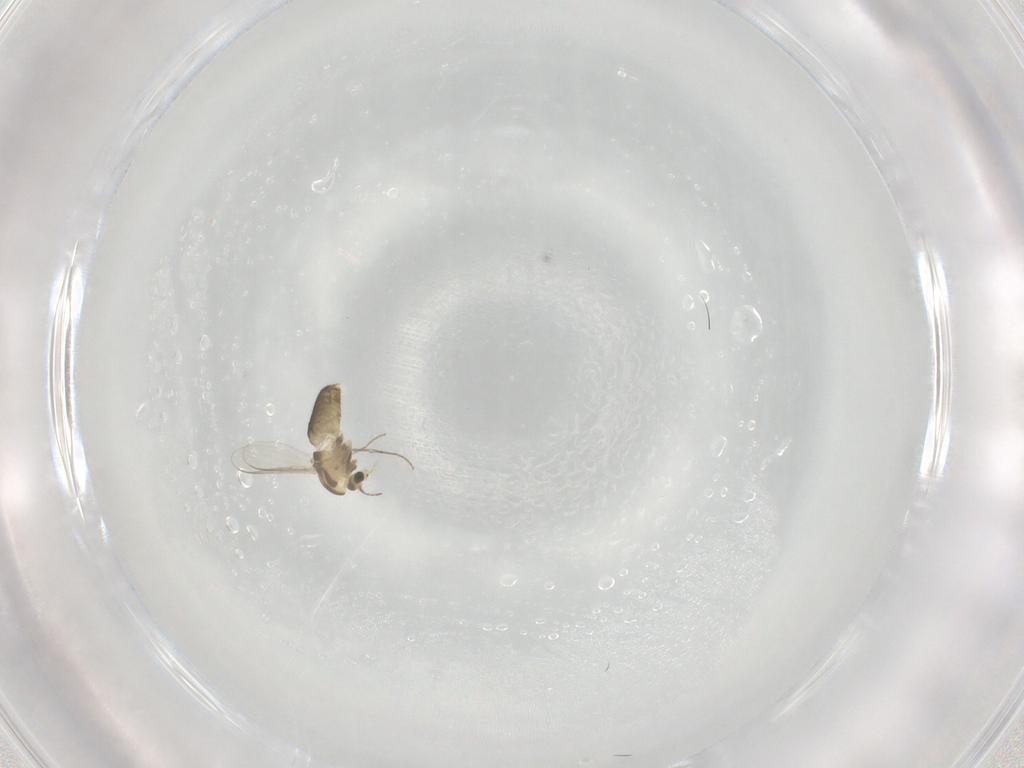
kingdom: Animalia
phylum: Arthropoda
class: Insecta
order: Diptera
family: Chironomidae
